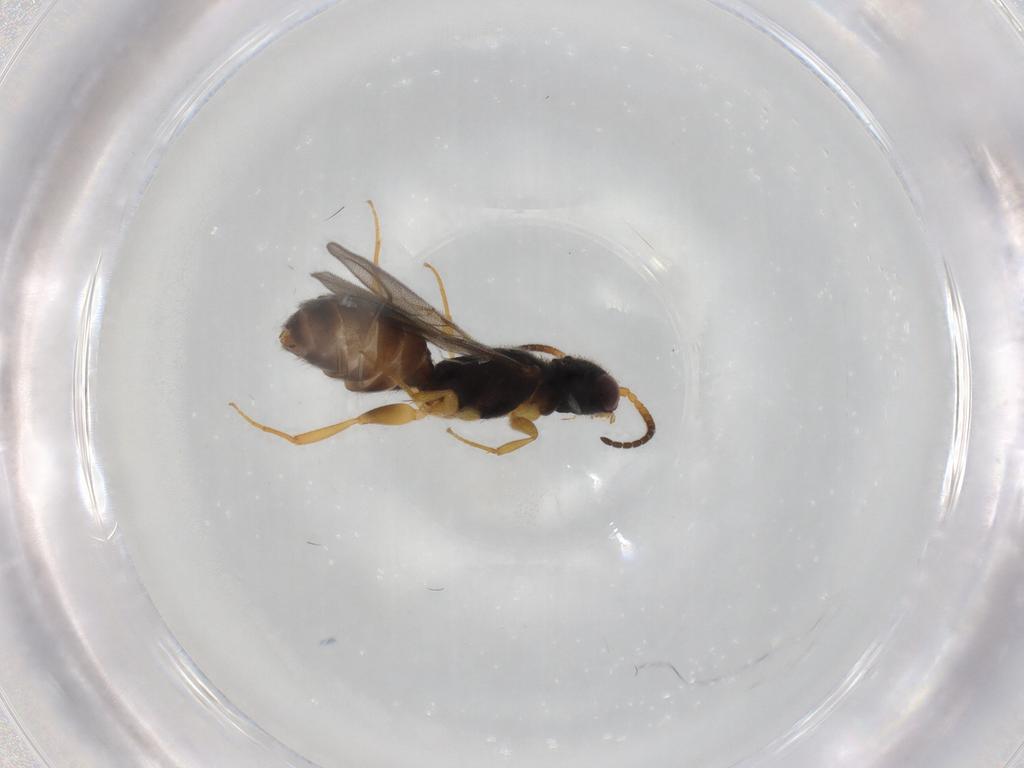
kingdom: Animalia
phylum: Arthropoda
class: Insecta
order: Hymenoptera
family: Bethylidae
